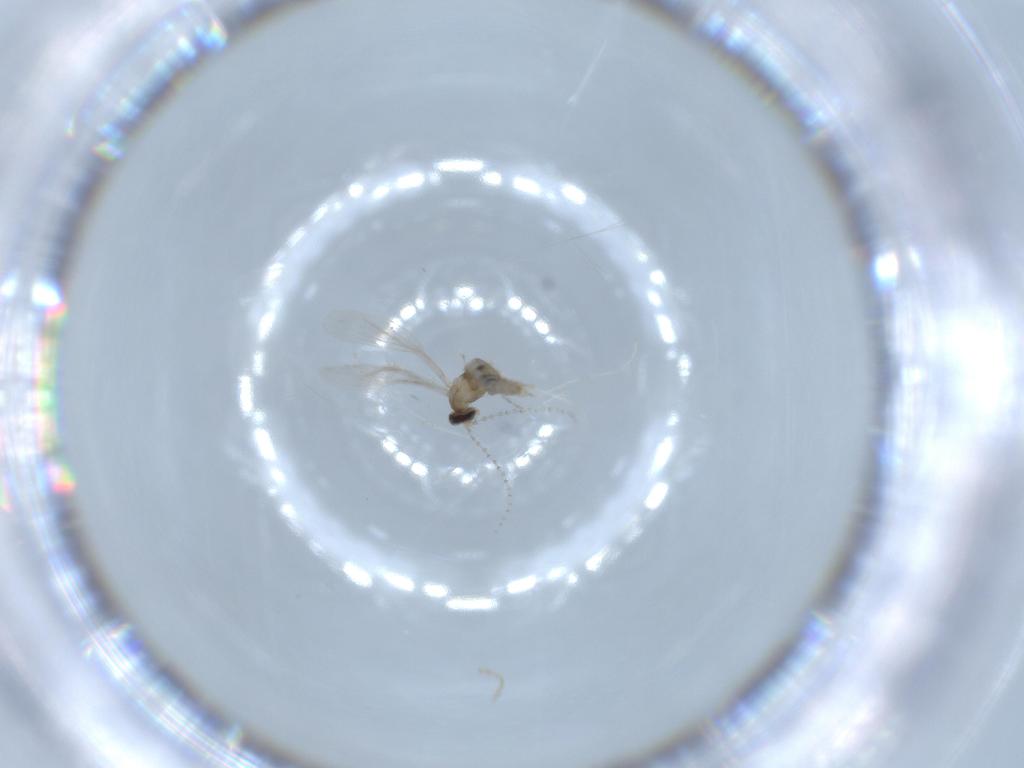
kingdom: Animalia
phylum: Arthropoda
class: Insecta
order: Diptera
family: Cecidomyiidae
